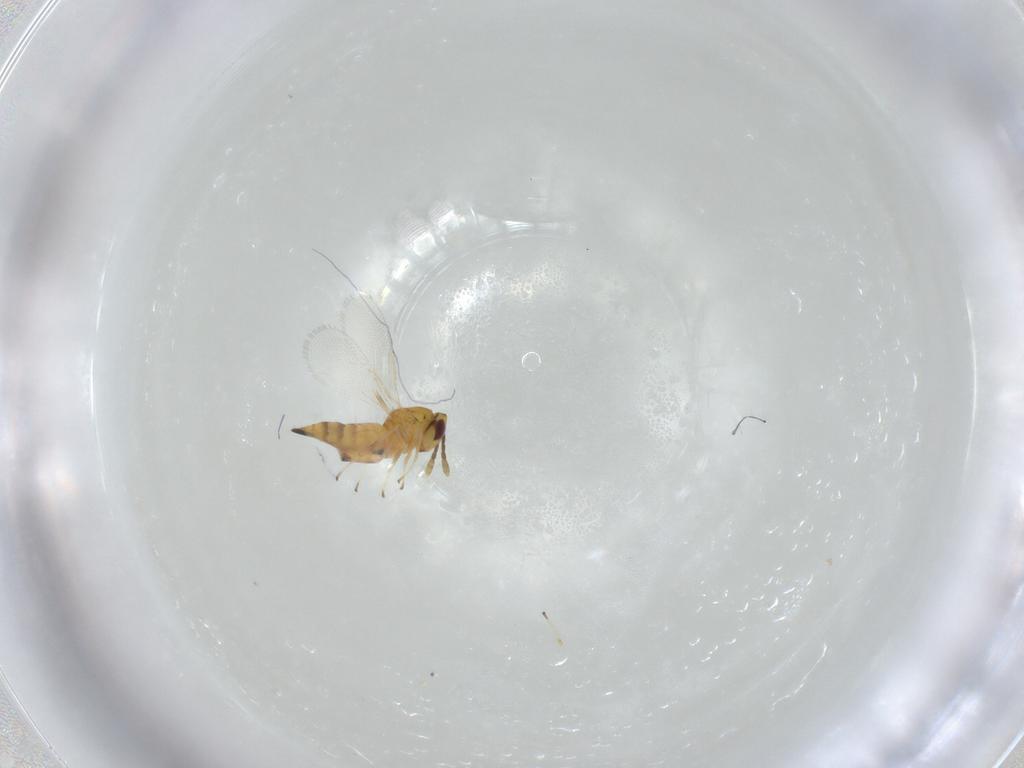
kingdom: Animalia
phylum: Arthropoda
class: Insecta
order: Hymenoptera
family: Eulophidae
